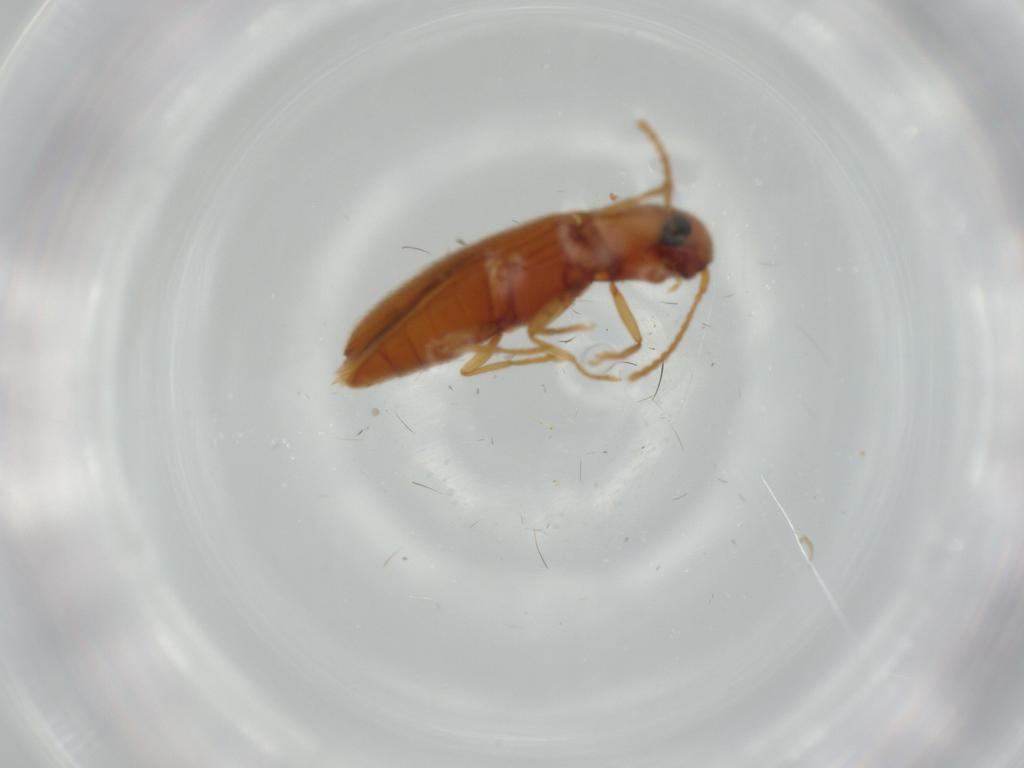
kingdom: Animalia
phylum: Arthropoda
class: Insecta
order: Coleoptera
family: Elateridae
